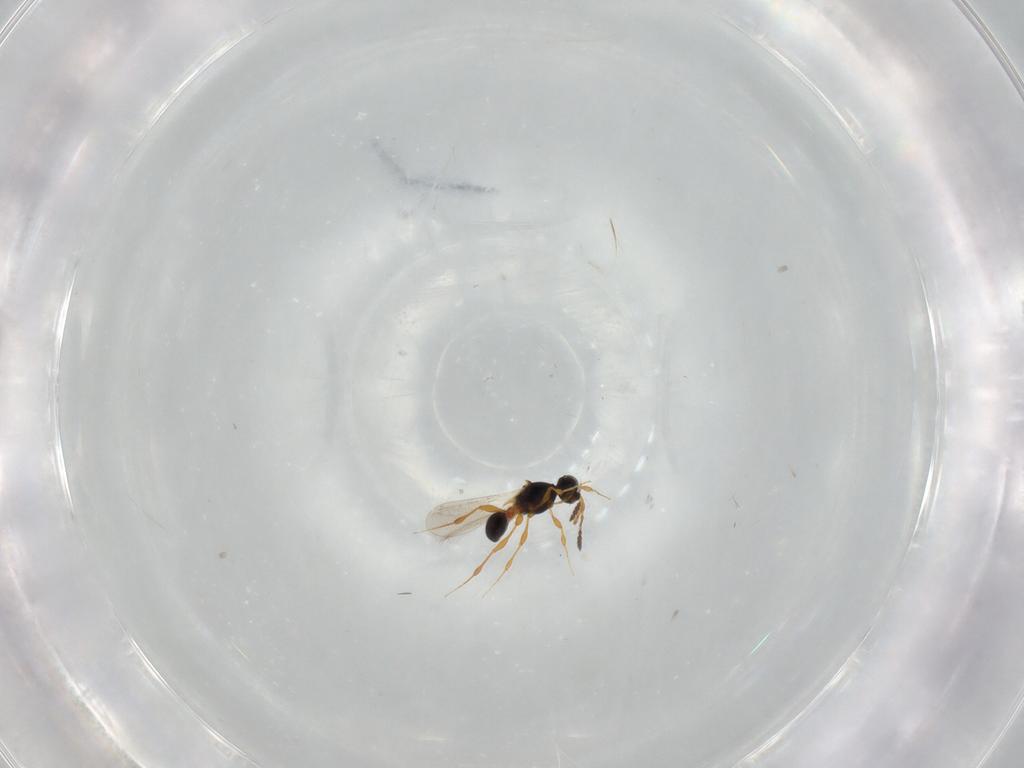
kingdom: Animalia
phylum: Arthropoda
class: Insecta
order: Hymenoptera
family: Platygastridae
